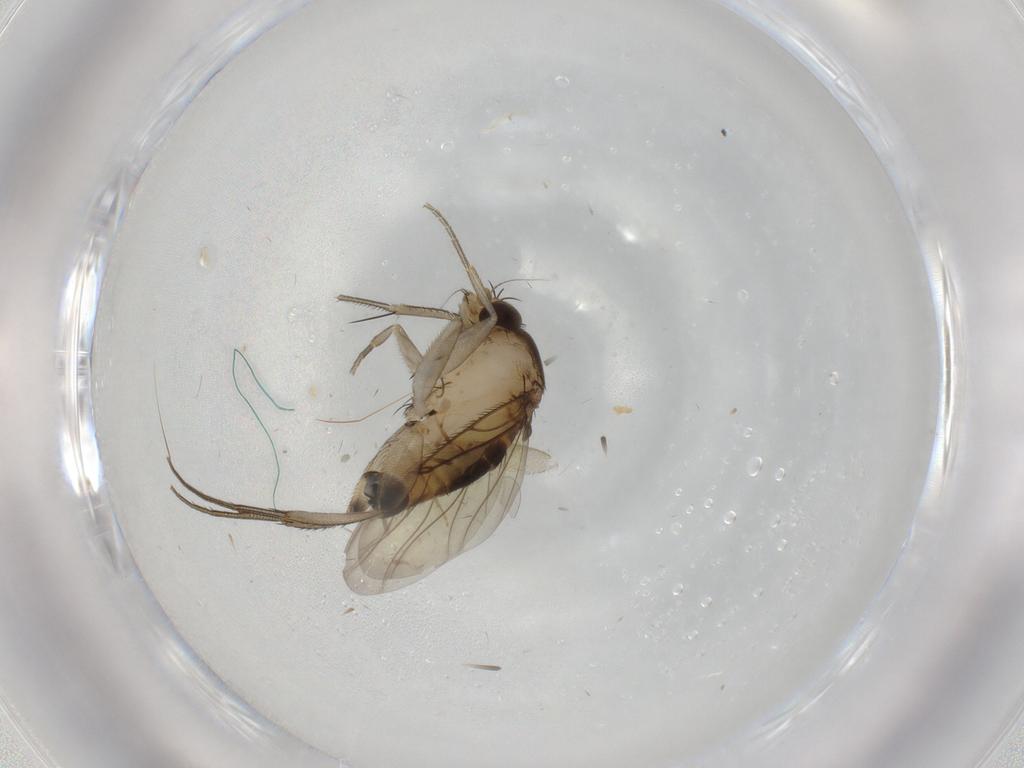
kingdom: Animalia
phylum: Arthropoda
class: Insecta
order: Diptera
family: Phoridae
